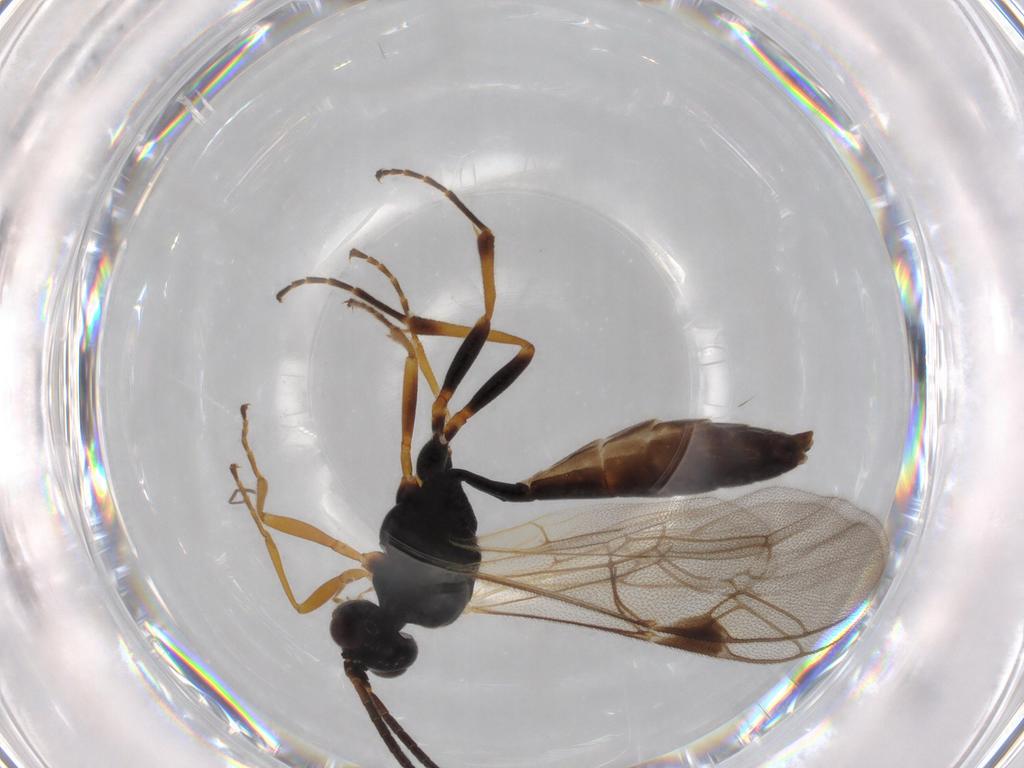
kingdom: Animalia
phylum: Arthropoda
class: Insecta
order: Hymenoptera
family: Ichneumonidae
